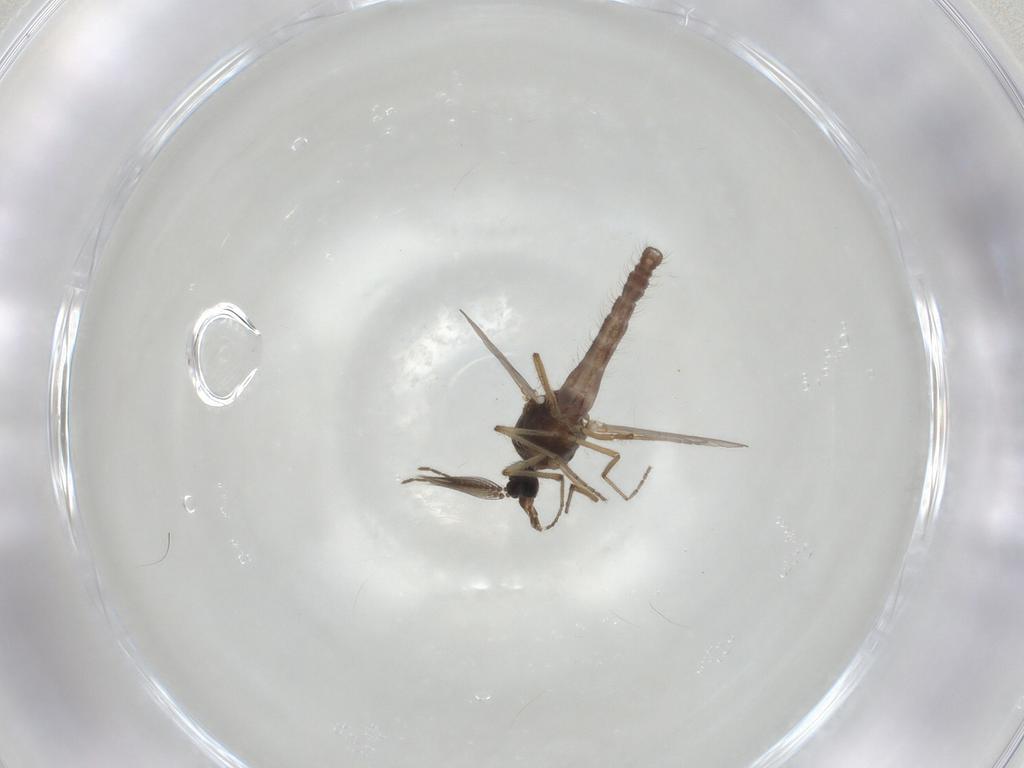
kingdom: Animalia
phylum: Arthropoda
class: Insecta
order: Diptera
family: Ceratopogonidae
